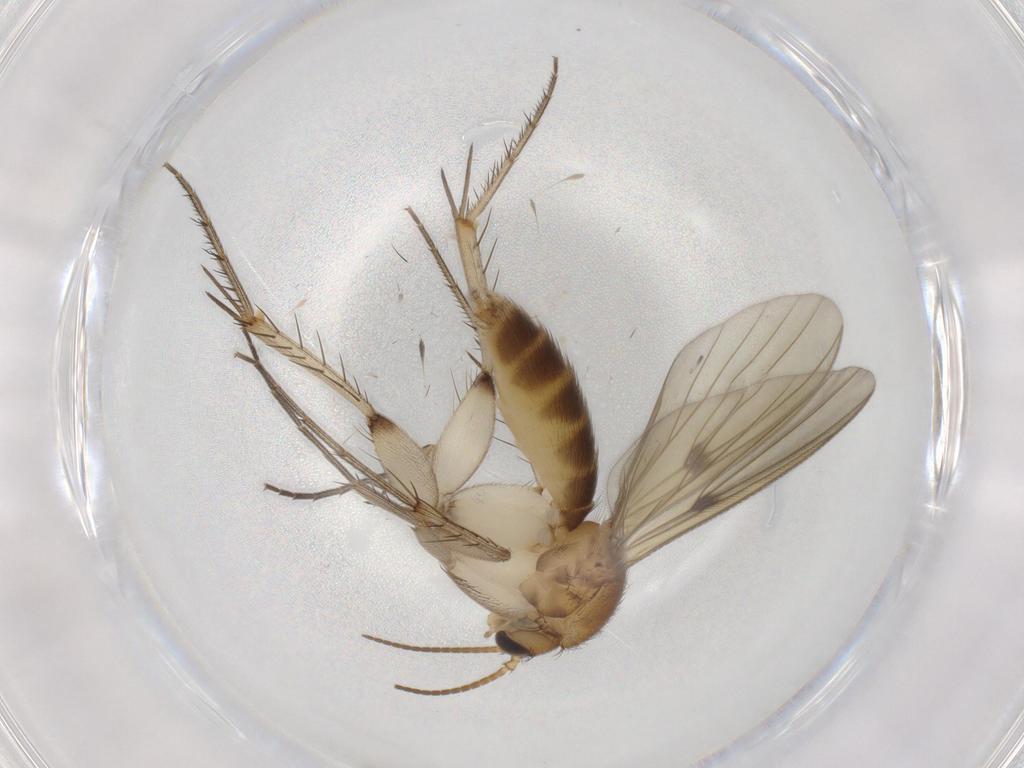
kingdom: Animalia
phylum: Arthropoda
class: Insecta
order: Diptera
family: Mycetophilidae
